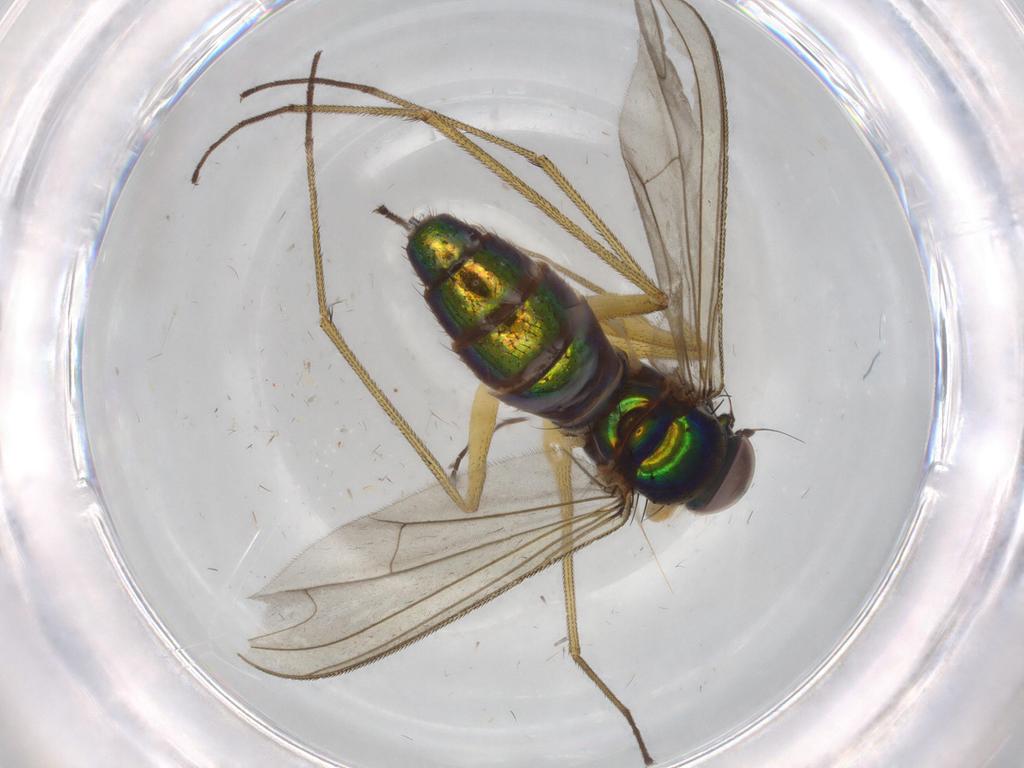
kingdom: Animalia
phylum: Arthropoda
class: Insecta
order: Diptera
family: Dolichopodidae
